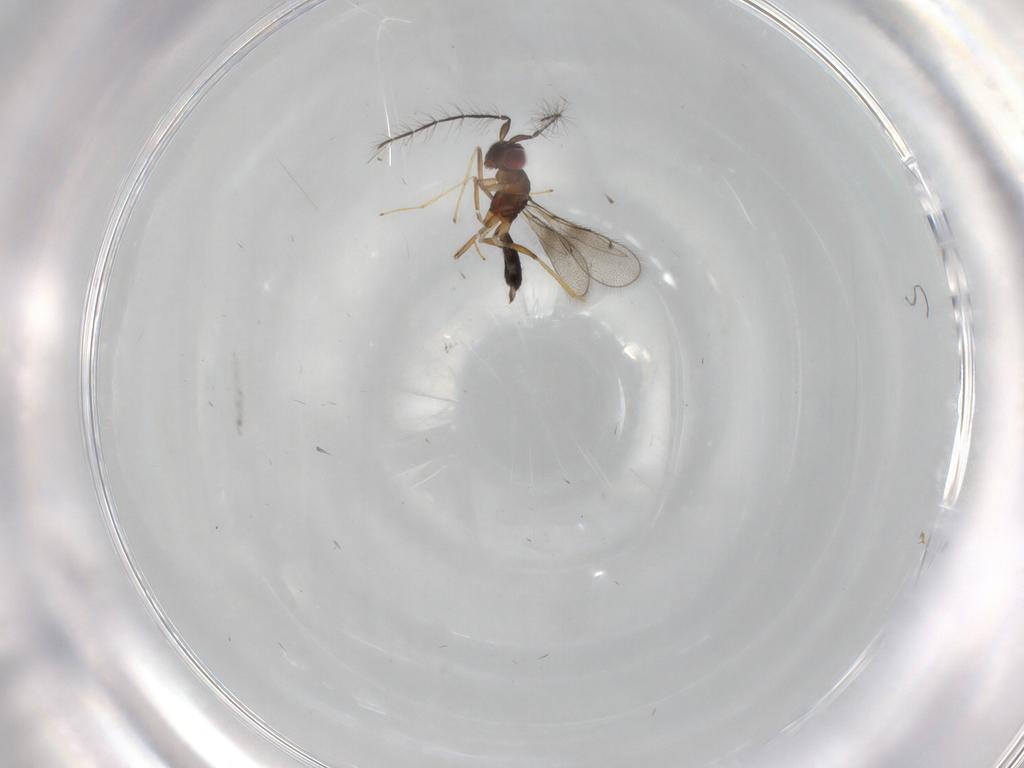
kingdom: Animalia
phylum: Arthropoda
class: Insecta
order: Hymenoptera
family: Eulophidae
